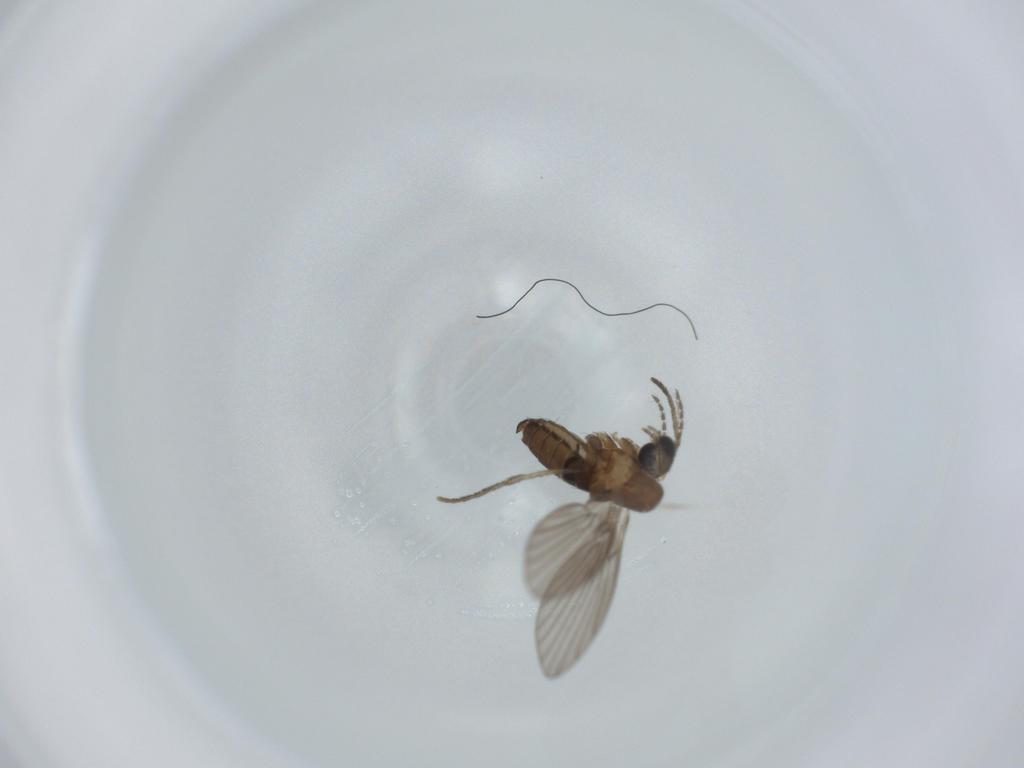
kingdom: Animalia
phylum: Arthropoda
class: Insecta
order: Diptera
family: Psychodidae
